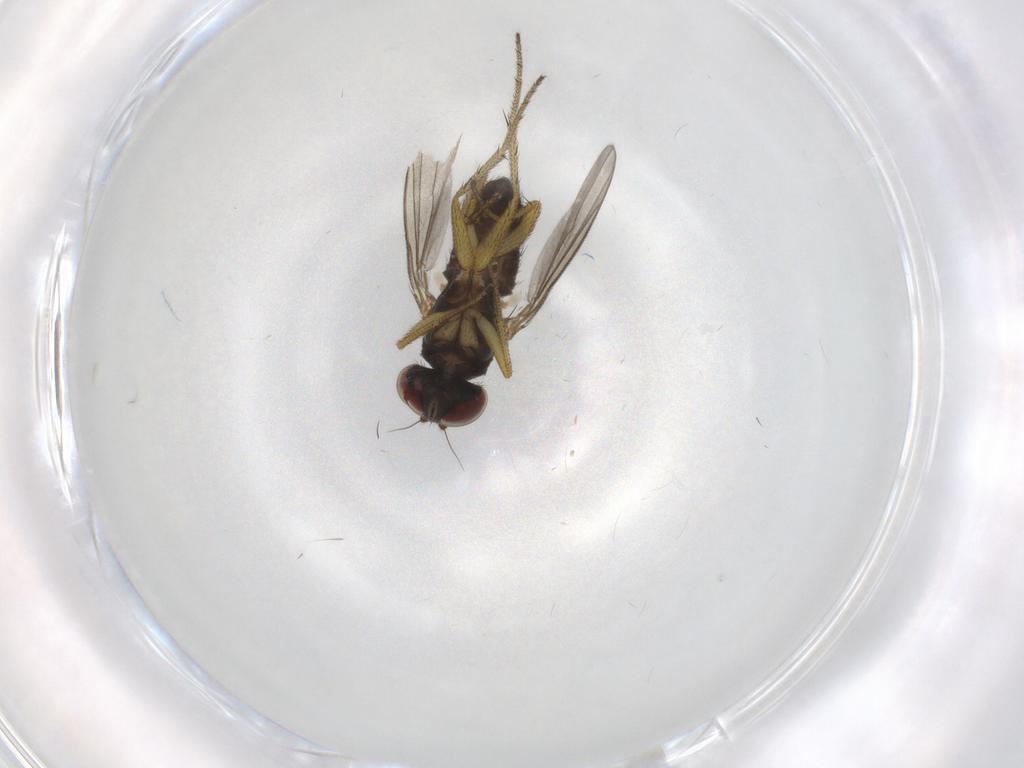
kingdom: Animalia
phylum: Arthropoda
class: Insecta
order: Diptera
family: Dolichopodidae
